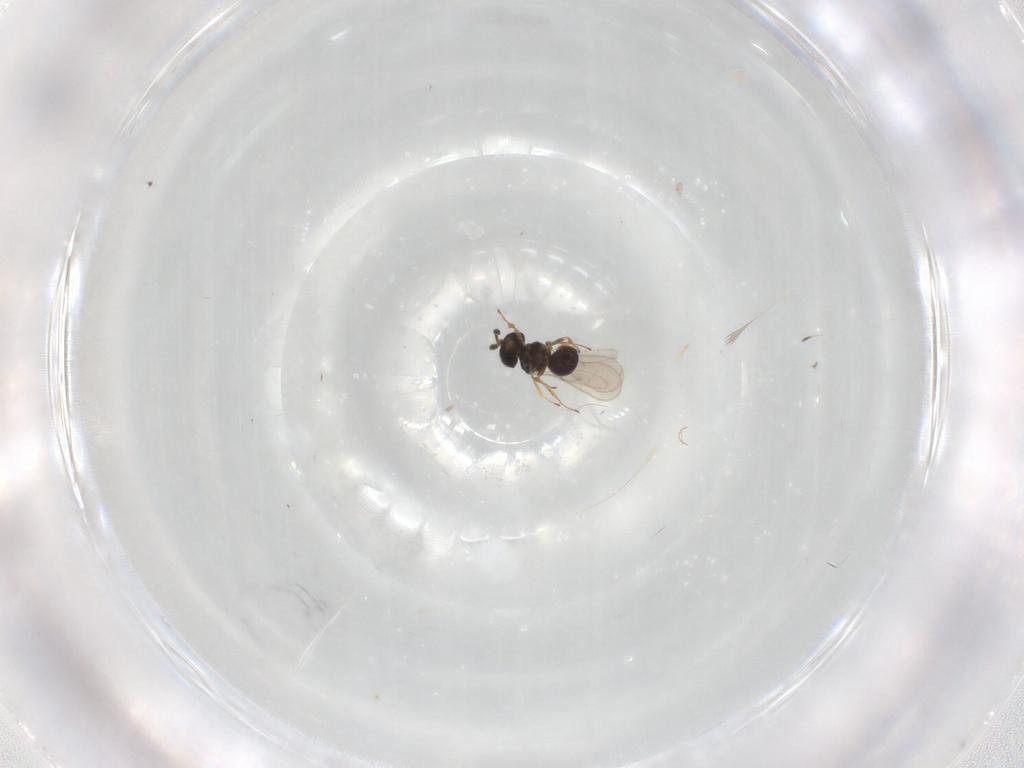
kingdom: Animalia
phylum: Arthropoda
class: Insecta
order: Hymenoptera
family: Scelionidae
